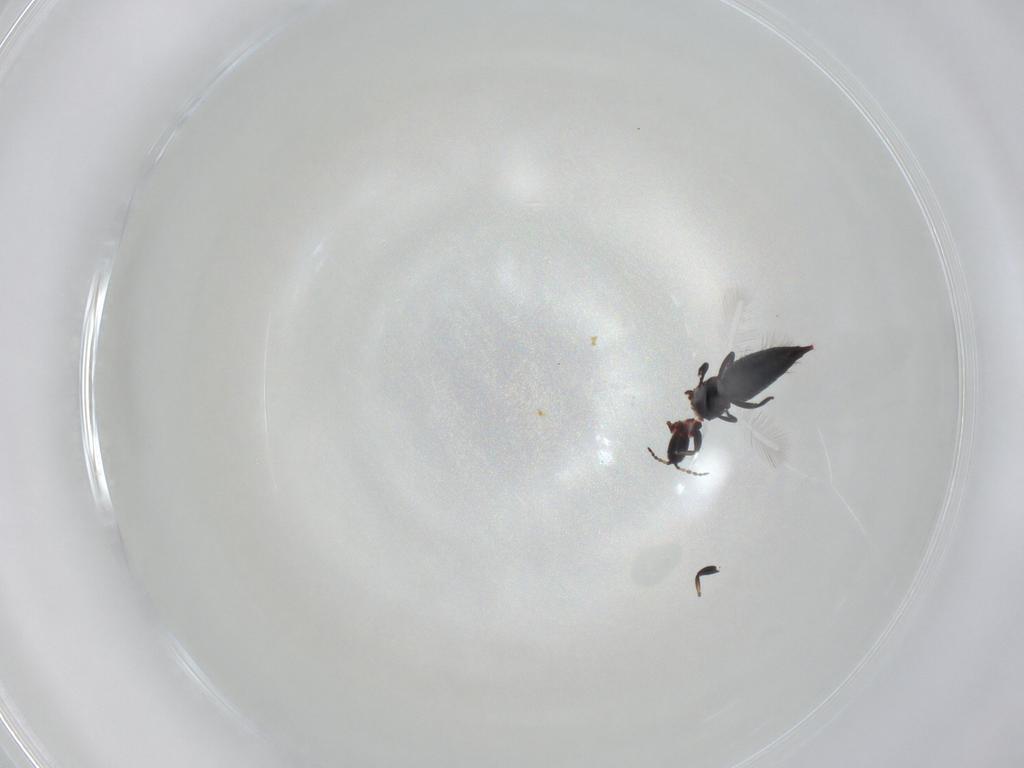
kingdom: Animalia
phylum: Arthropoda
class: Insecta
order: Thysanoptera
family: Phlaeothripidae
